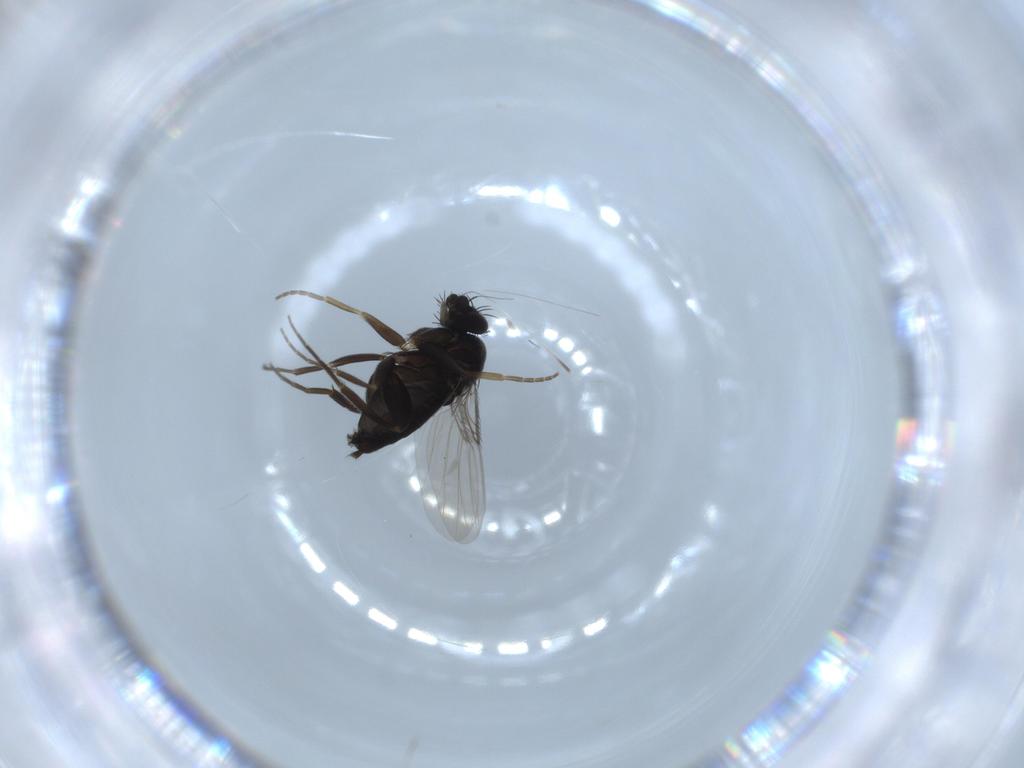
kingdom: Animalia
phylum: Arthropoda
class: Insecta
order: Diptera
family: Phoridae
